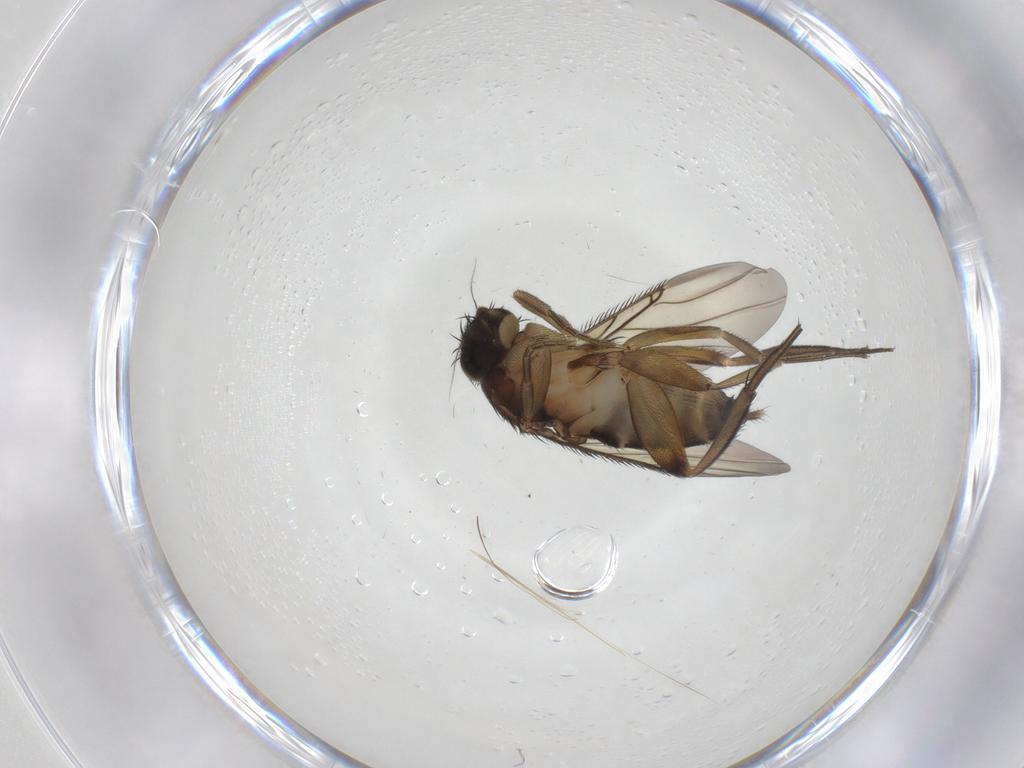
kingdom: Animalia
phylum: Arthropoda
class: Insecta
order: Diptera
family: Phoridae
